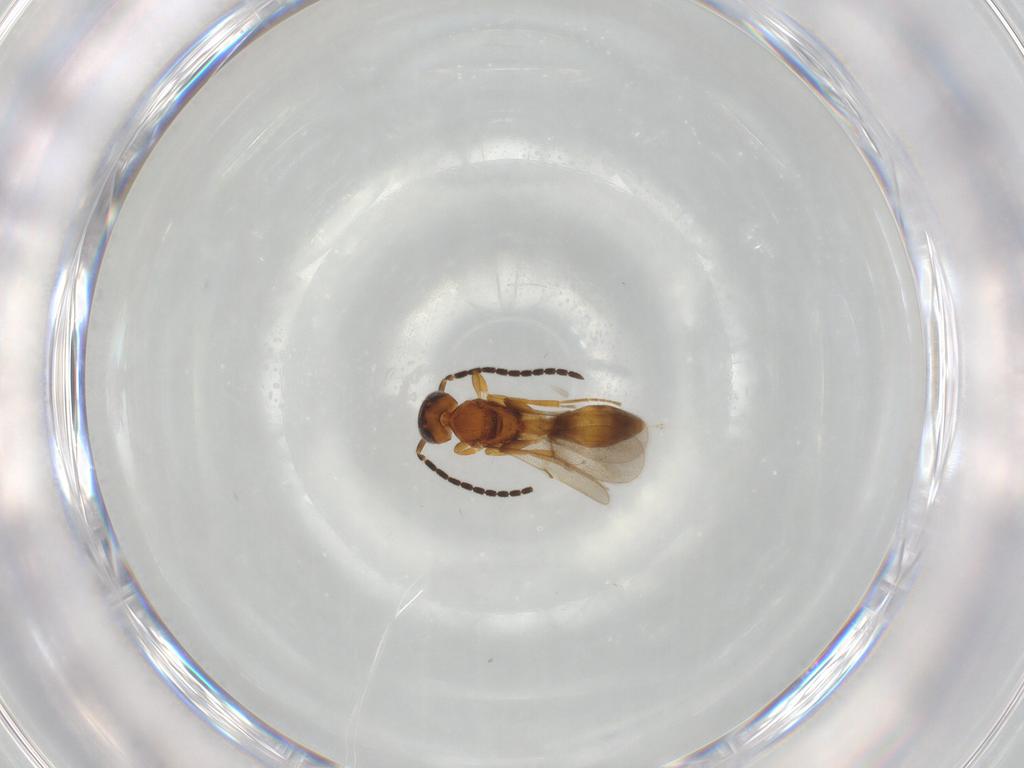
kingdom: Animalia
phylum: Arthropoda
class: Insecta
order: Hymenoptera
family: Scelionidae
